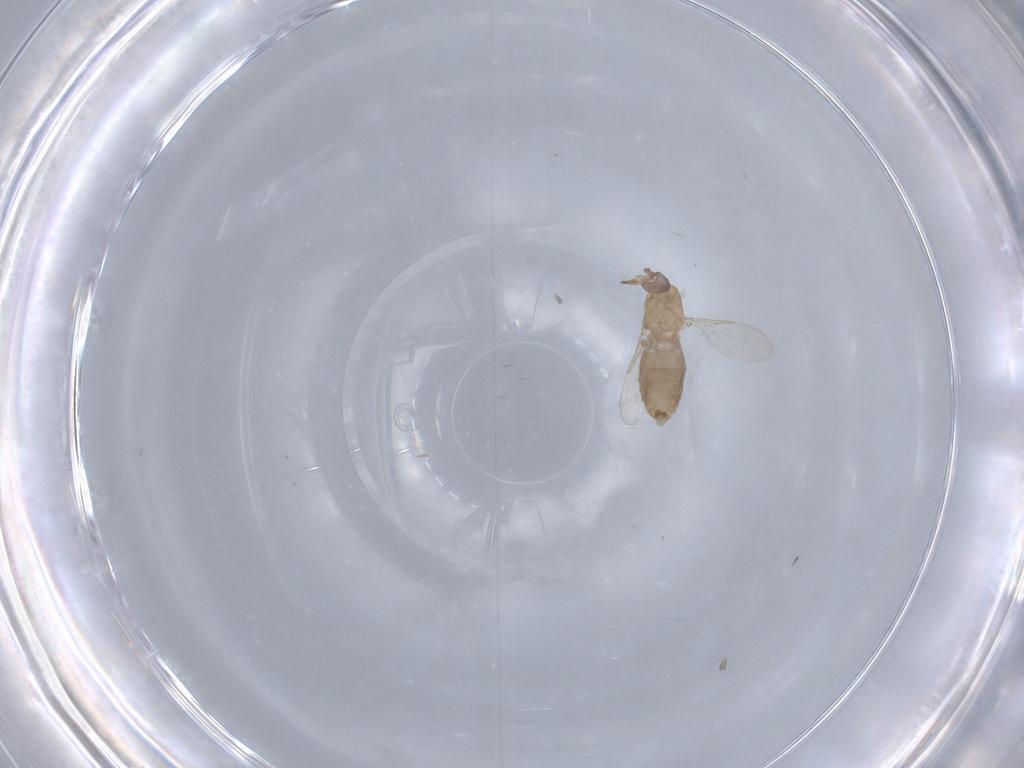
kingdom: Animalia
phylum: Arthropoda
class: Insecta
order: Diptera
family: Ceratopogonidae
